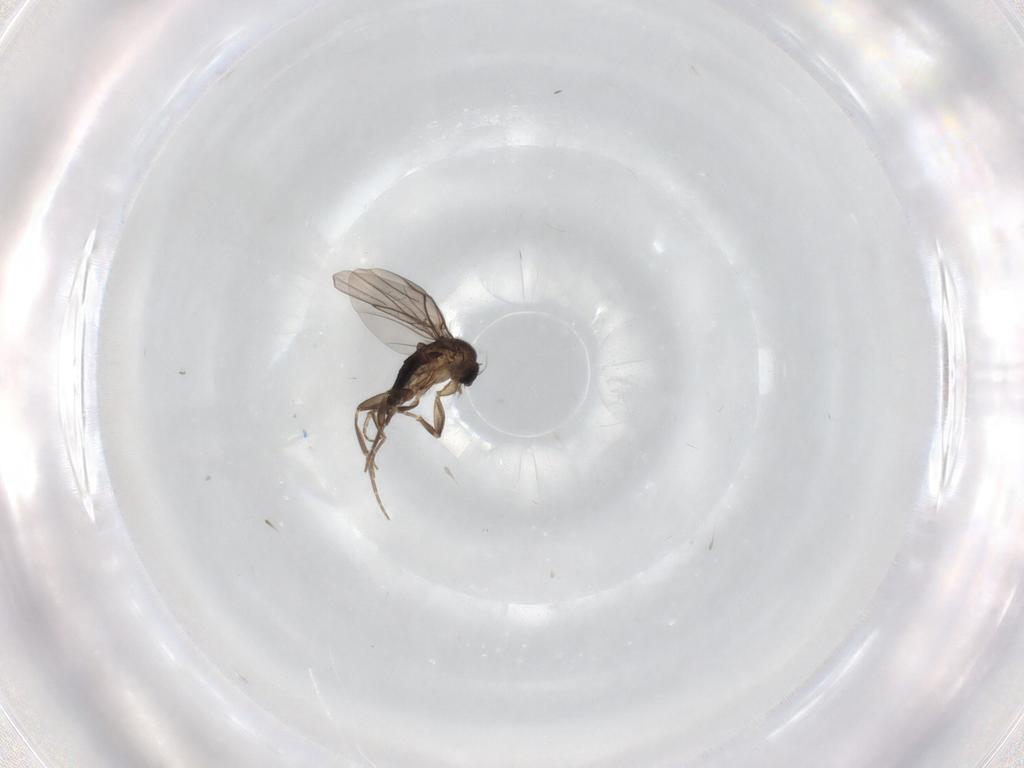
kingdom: Animalia
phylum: Arthropoda
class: Insecta
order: Diptera
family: Phoridae
